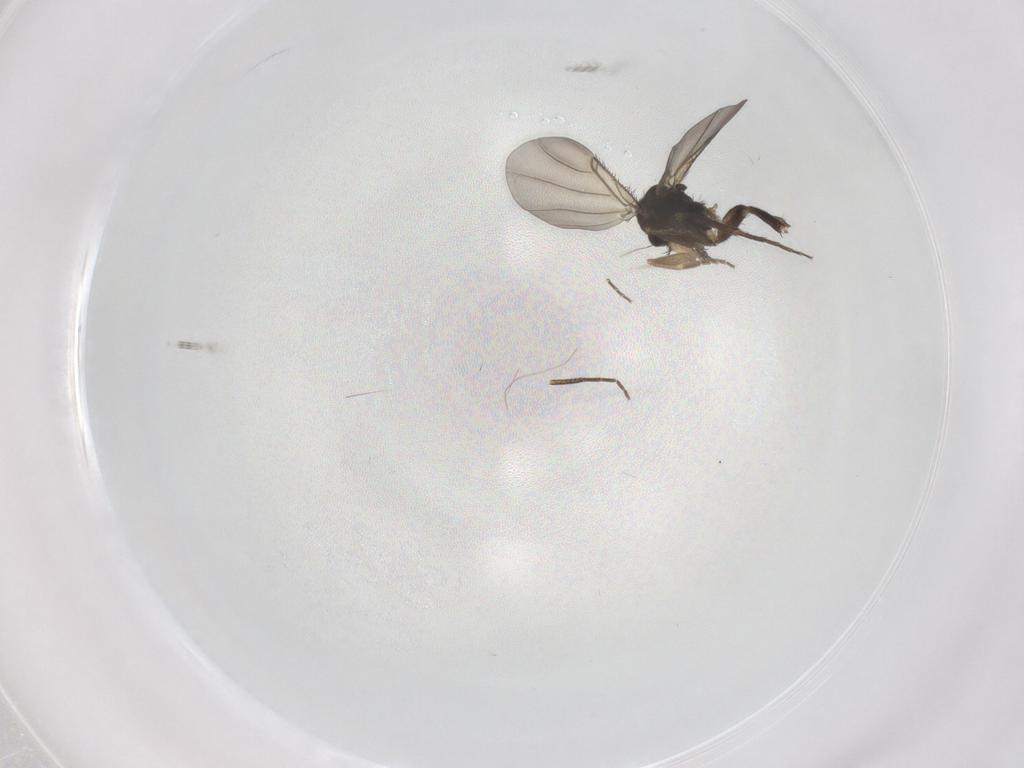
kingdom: Animalia
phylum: Arthropoda
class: Insecta
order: Diptera
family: Phoridae
